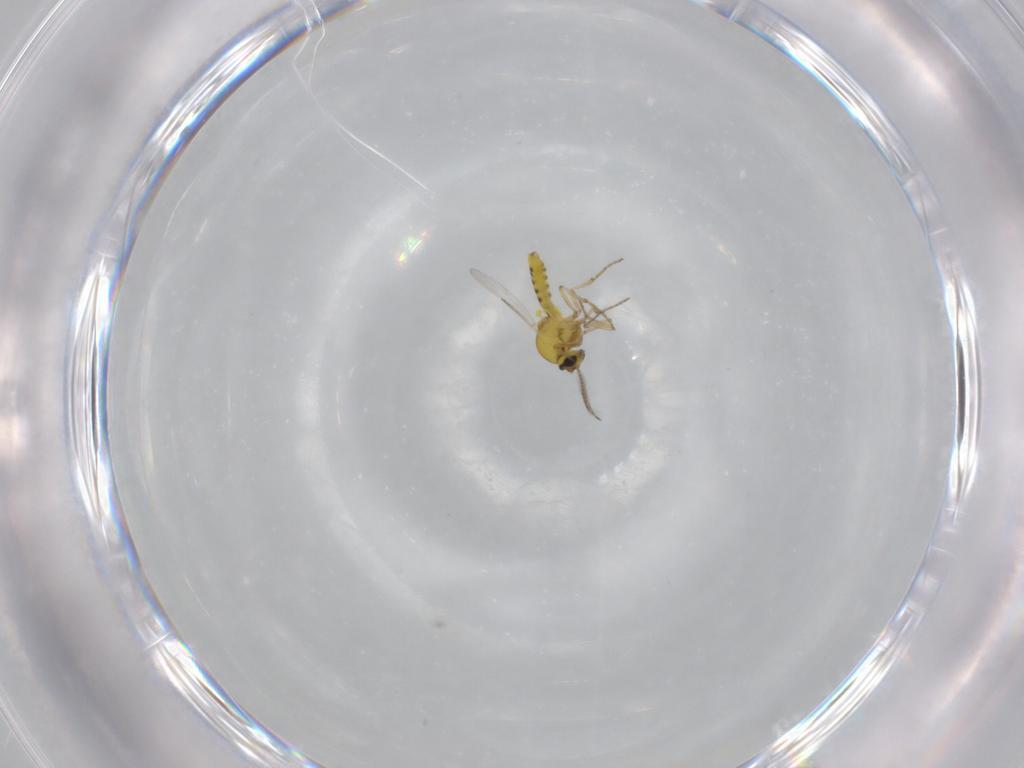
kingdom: Animalia
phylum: Arthropoda
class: Insecta
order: Diptera
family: Ceratopogonidae
